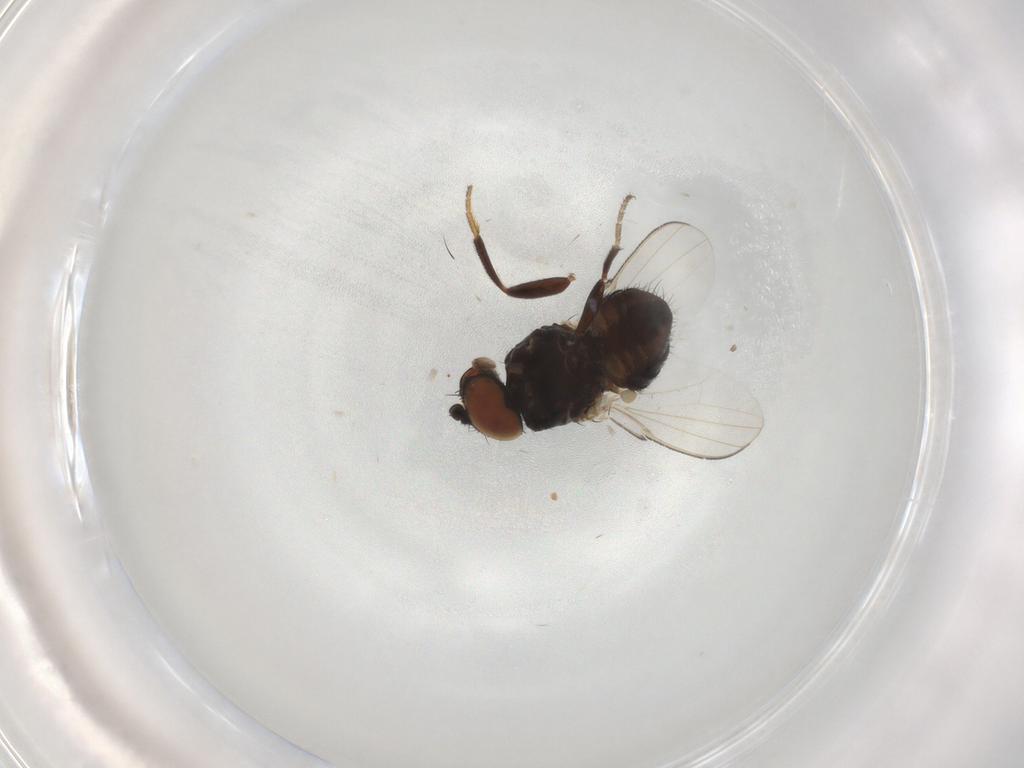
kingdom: Animalia
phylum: Arthropoda
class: Insecta
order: Diptera
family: Milichiidae
